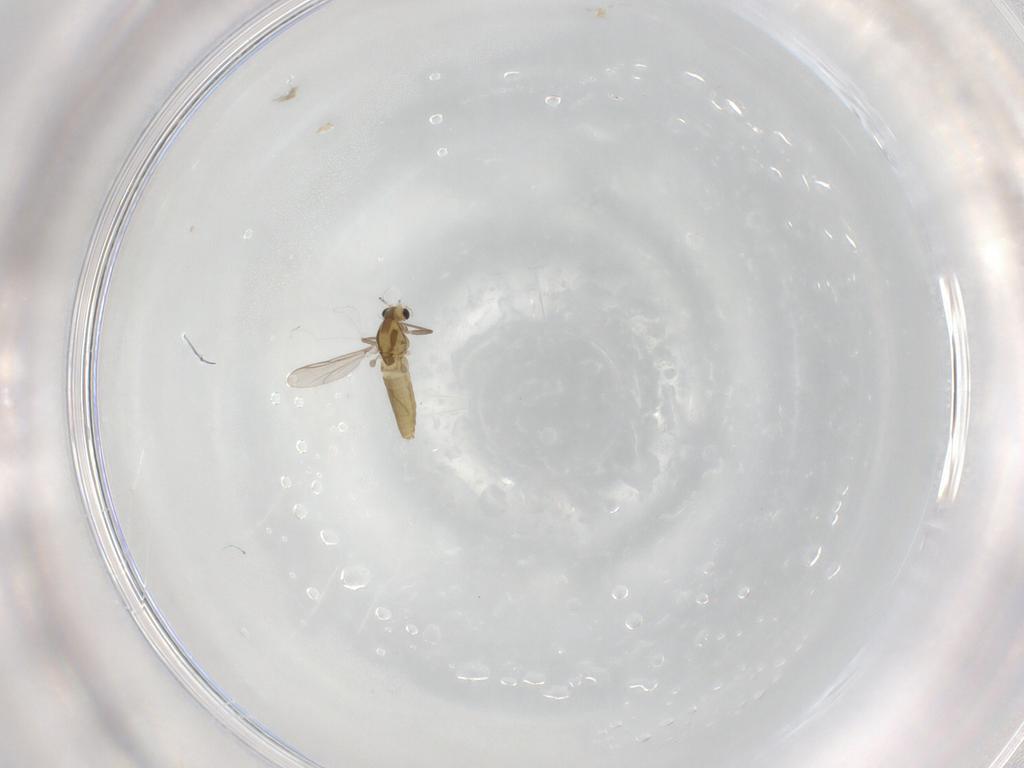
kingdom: Animalia
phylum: Arthropoda
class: Insecta
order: Diptera
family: Chironomidae
